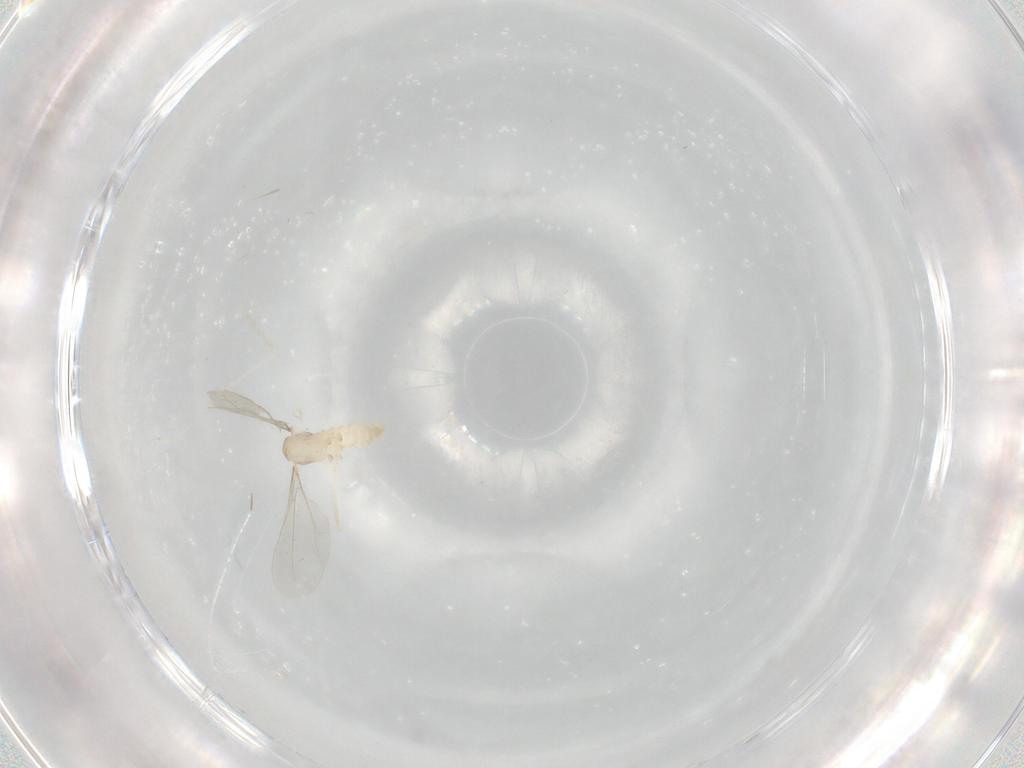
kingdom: Animalia
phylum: Arthropoda
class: Insecta
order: Diptera
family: Cecidomyiidae
